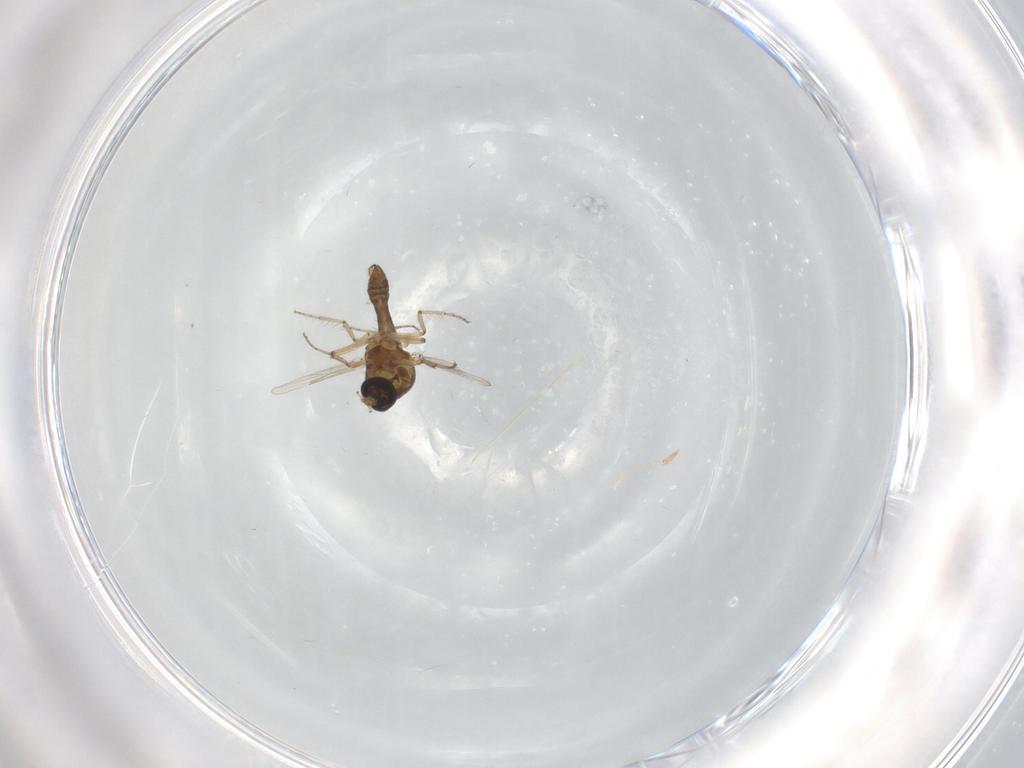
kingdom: Animalia
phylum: Arthropoda
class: Insecta
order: Diptera
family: Ceratopogonidae
